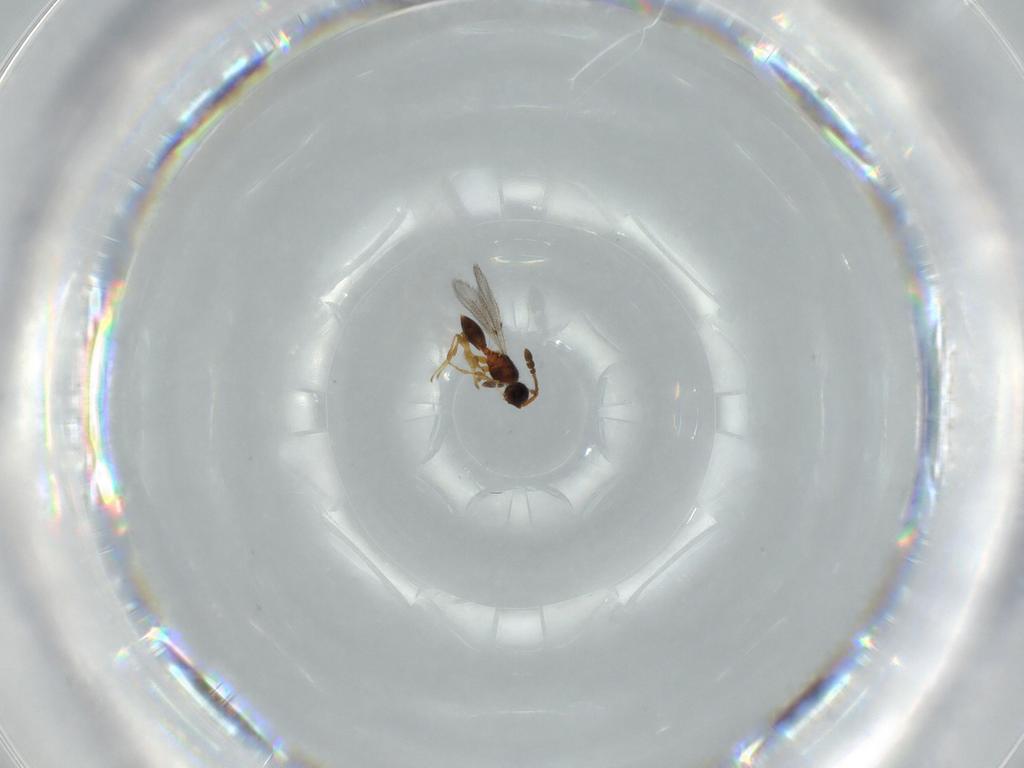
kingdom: Animalia
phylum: Arthropoda
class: Insecta
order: Hymenoptera
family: Diapriidae
